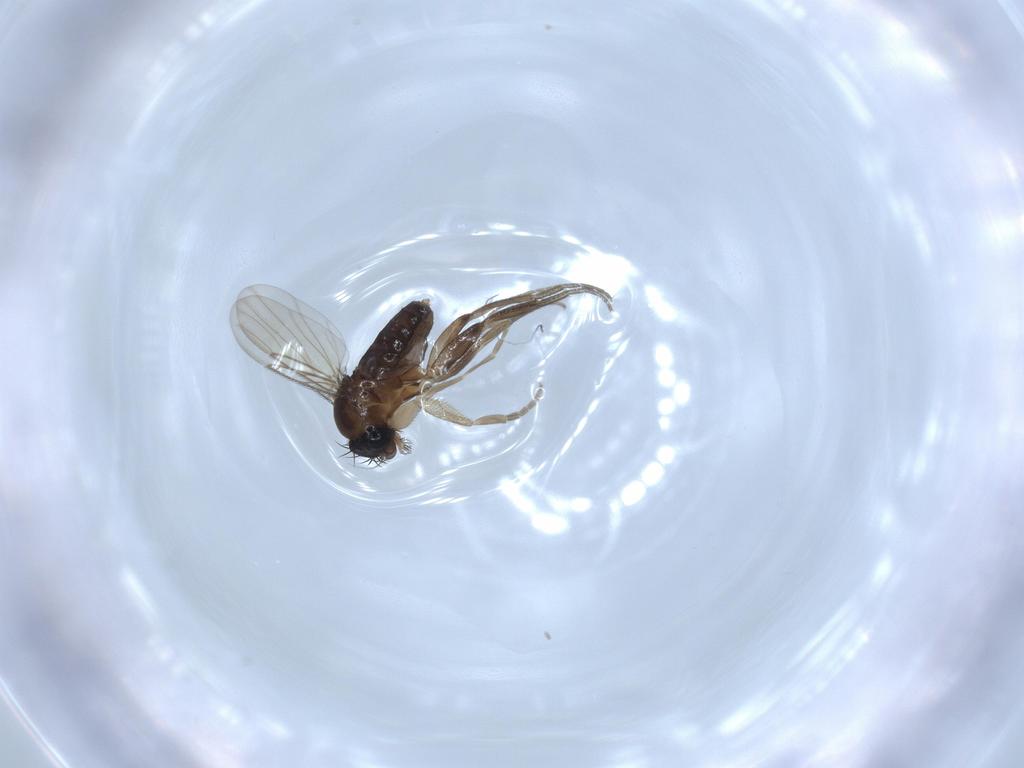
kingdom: Animalia
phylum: Arthropoda
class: Insecta
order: Diptera
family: Phoridae
